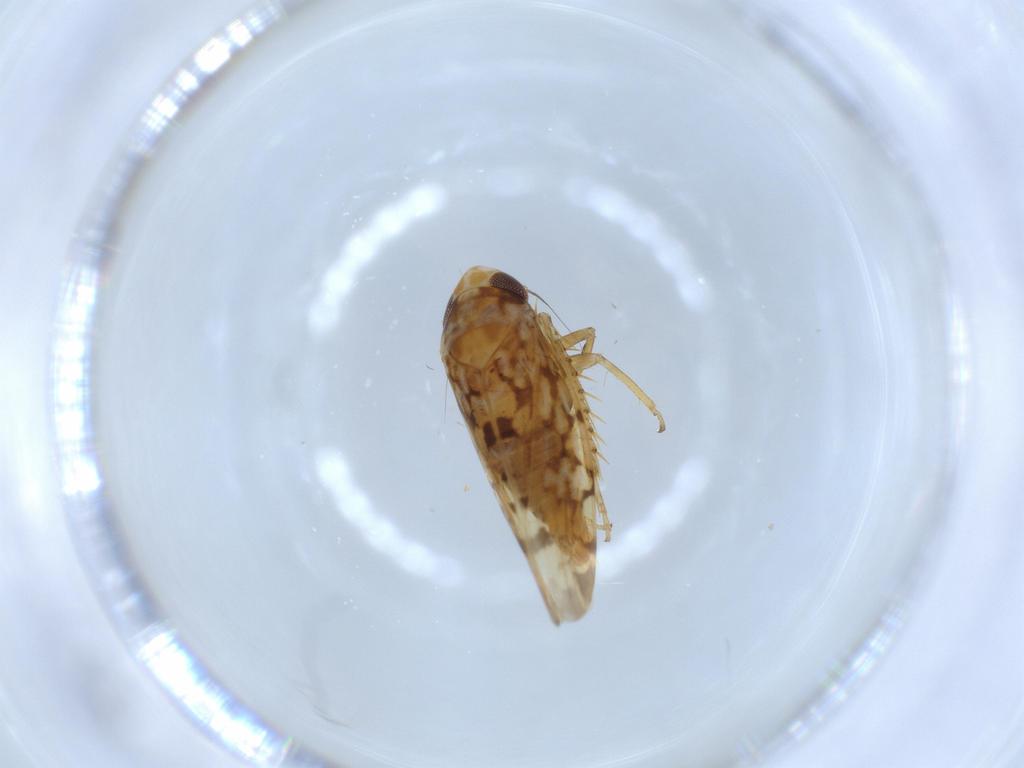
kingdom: Animalia
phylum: Arthropoda
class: Insecta
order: Hemiptera
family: Cicadellidae
